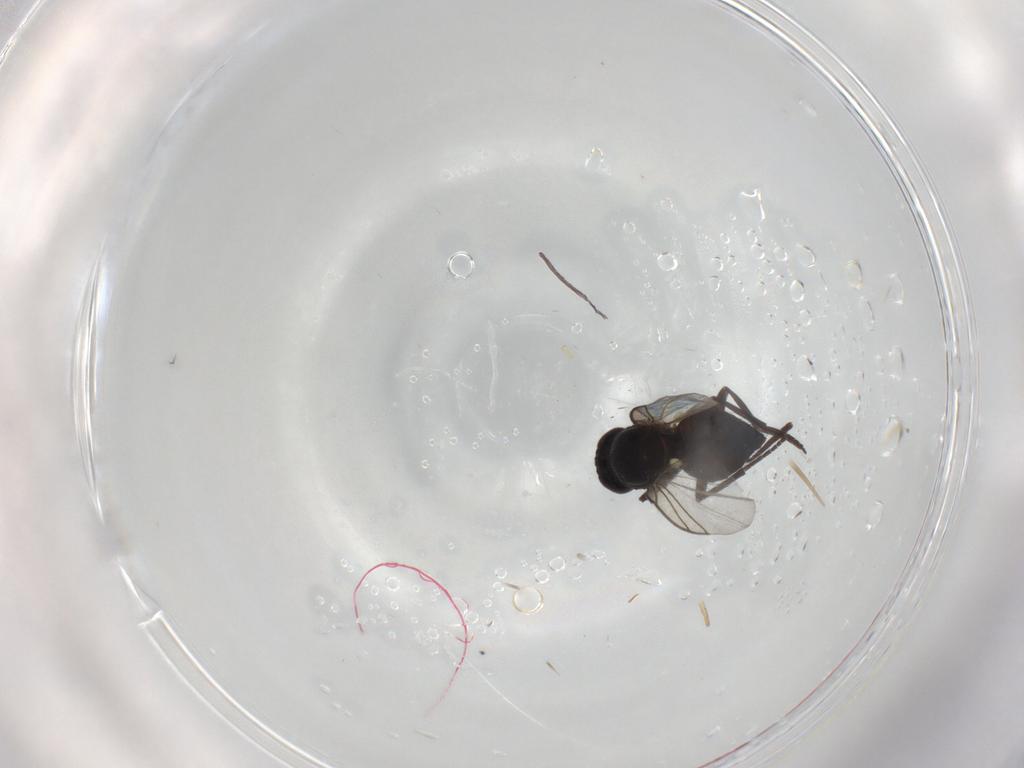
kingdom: Animalia
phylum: Arthropoda
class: Insecta
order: Diptera
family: Agromyzidae
